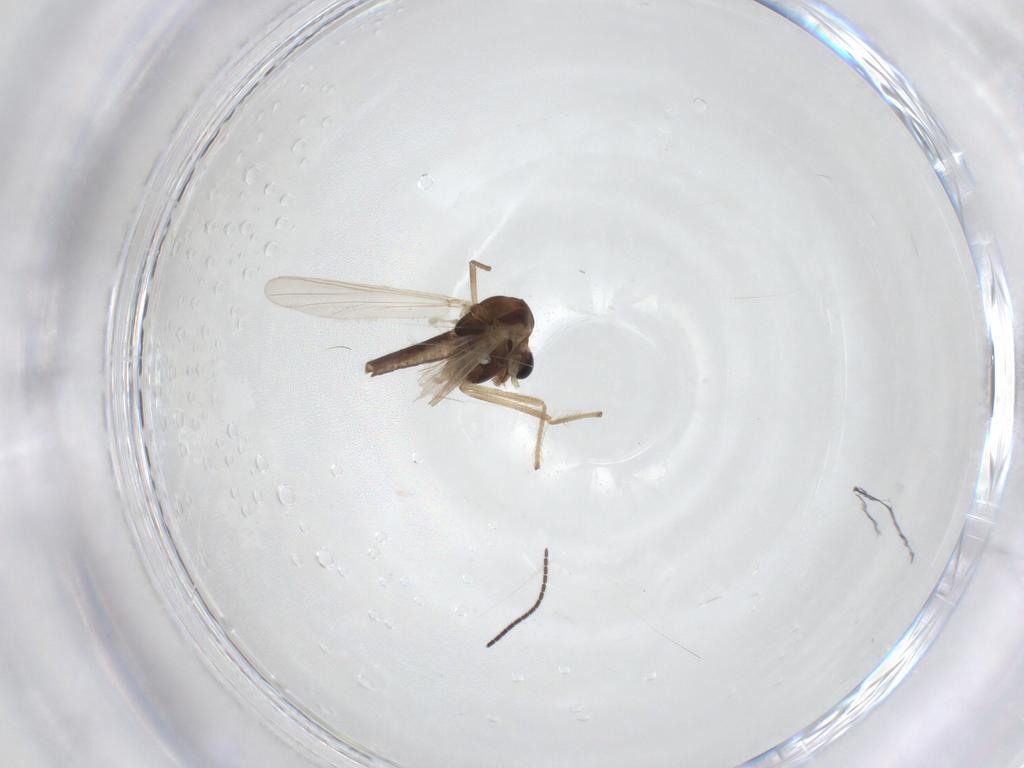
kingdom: Animalia
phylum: Arthropoda
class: Insecta
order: Diptera
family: Chironomidae
